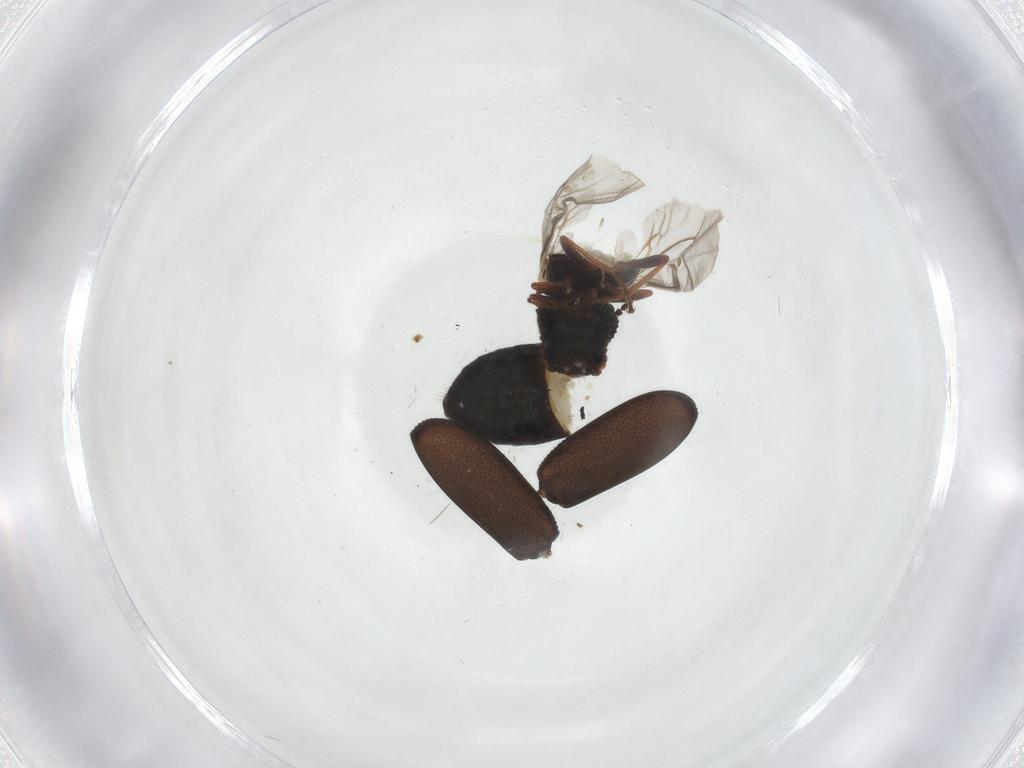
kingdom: Animalia
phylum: Arthropoda
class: Insecta
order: Coleoptera
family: Melyridae
